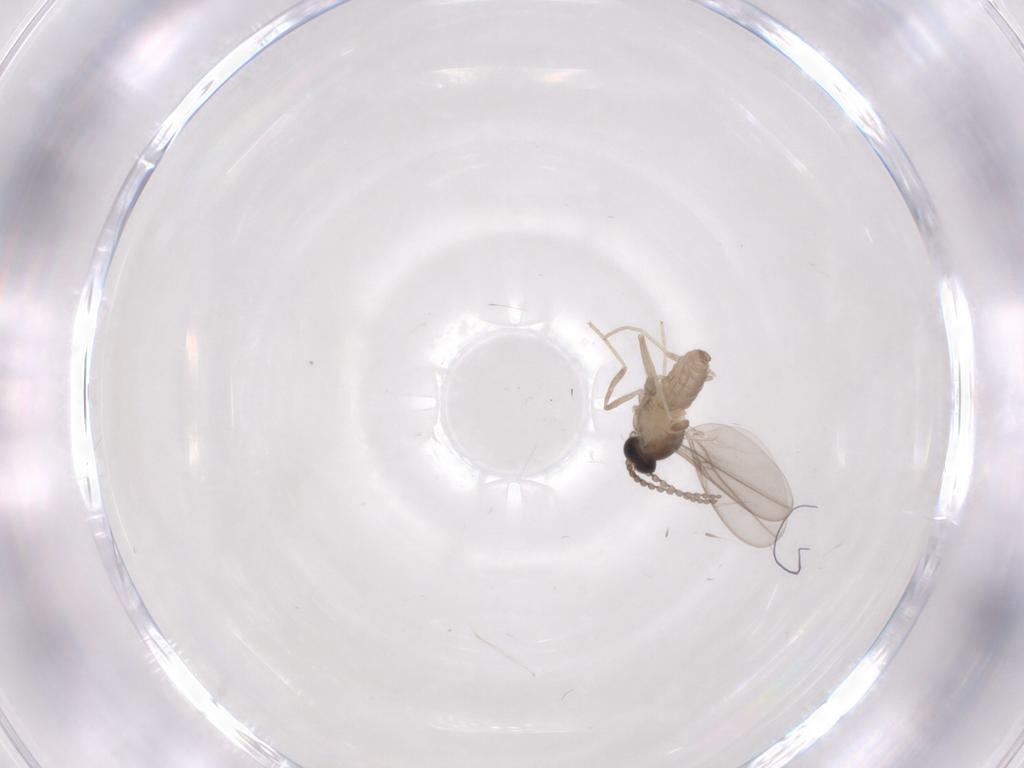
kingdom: Animalia
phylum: Arthropoda
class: Insecta
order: Diptera
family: Cecidomyiidae
